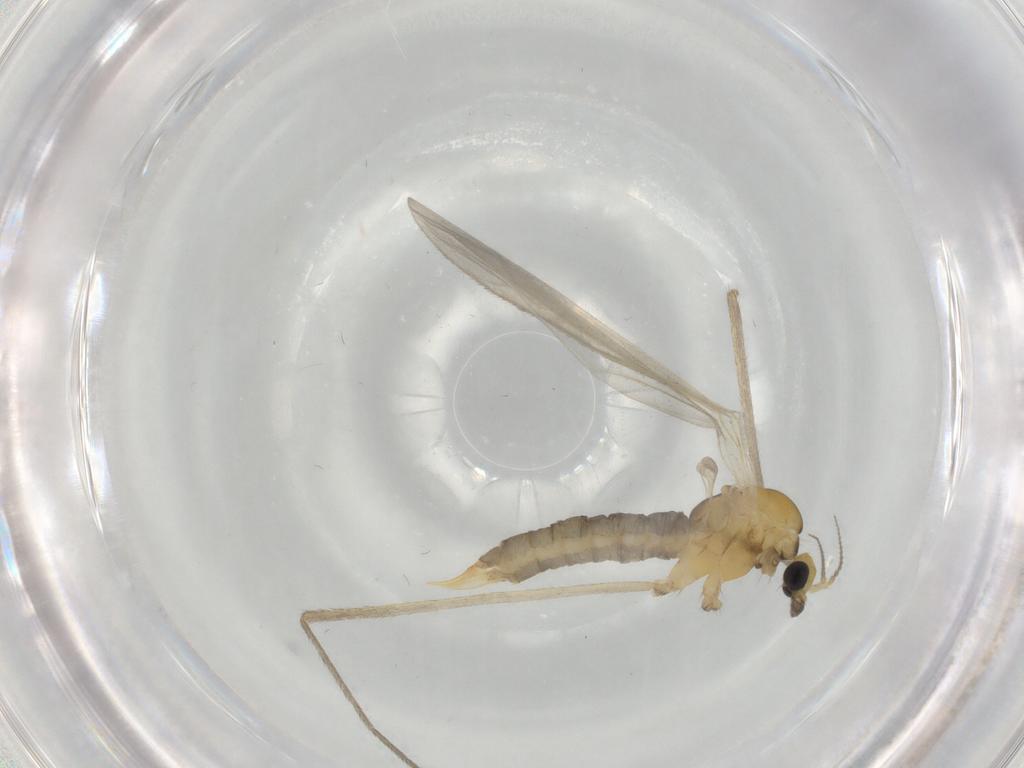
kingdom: Animalia
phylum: Arthropoda
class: Insecta
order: Diptera
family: Limoniidae
